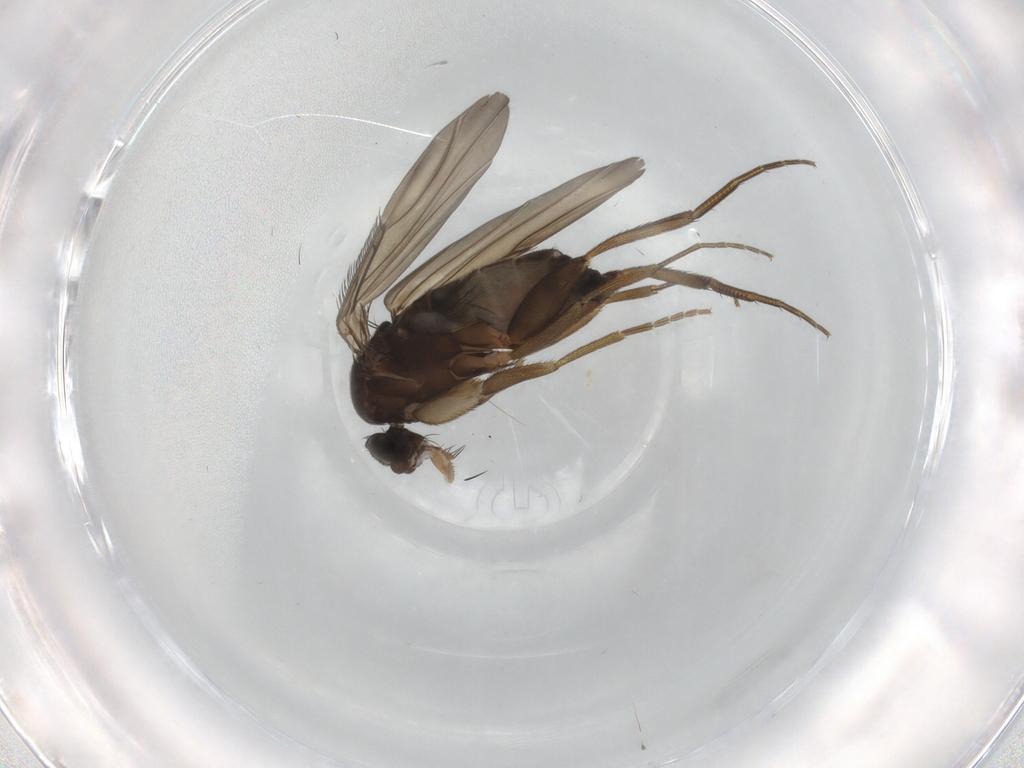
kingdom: Animalia
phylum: Arthropoda
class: Insecta
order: Diptera
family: Phoridae
